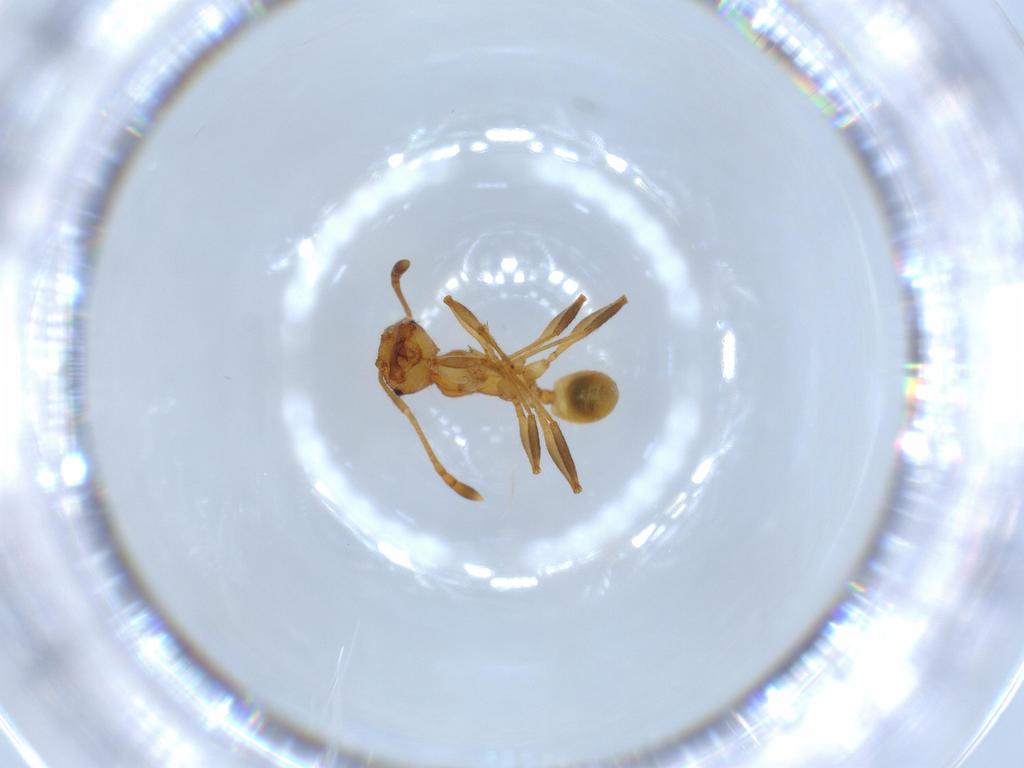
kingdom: Animalia
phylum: Arthropoda
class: Insecta
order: Hymenoptera
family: Formicidae
